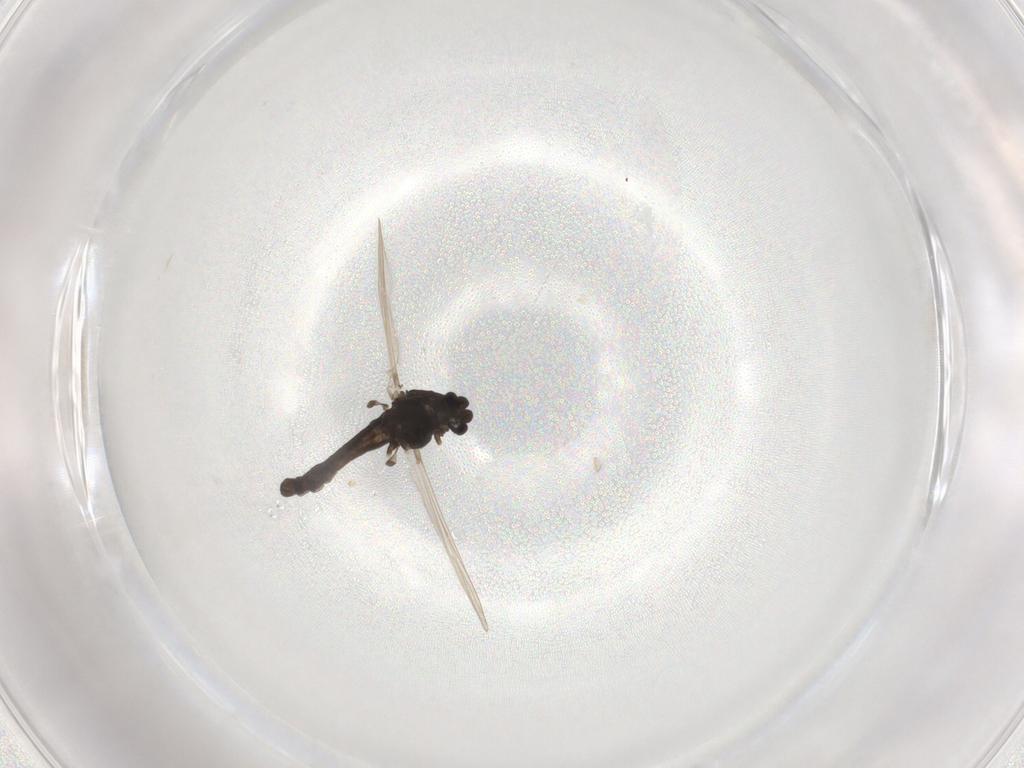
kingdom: Animalia
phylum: Arthropoda
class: Insecta
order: Diptera
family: Chironomidae
